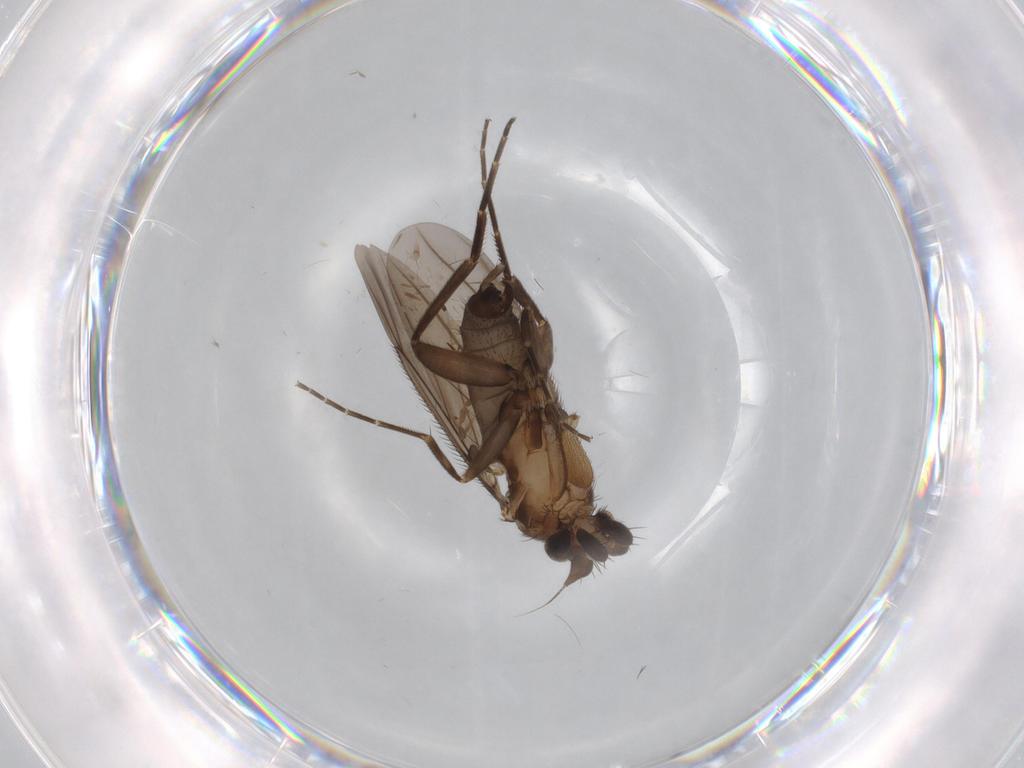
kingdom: Animalia
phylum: Arthropoda
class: Insecta
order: Diptera
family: Phoridae
